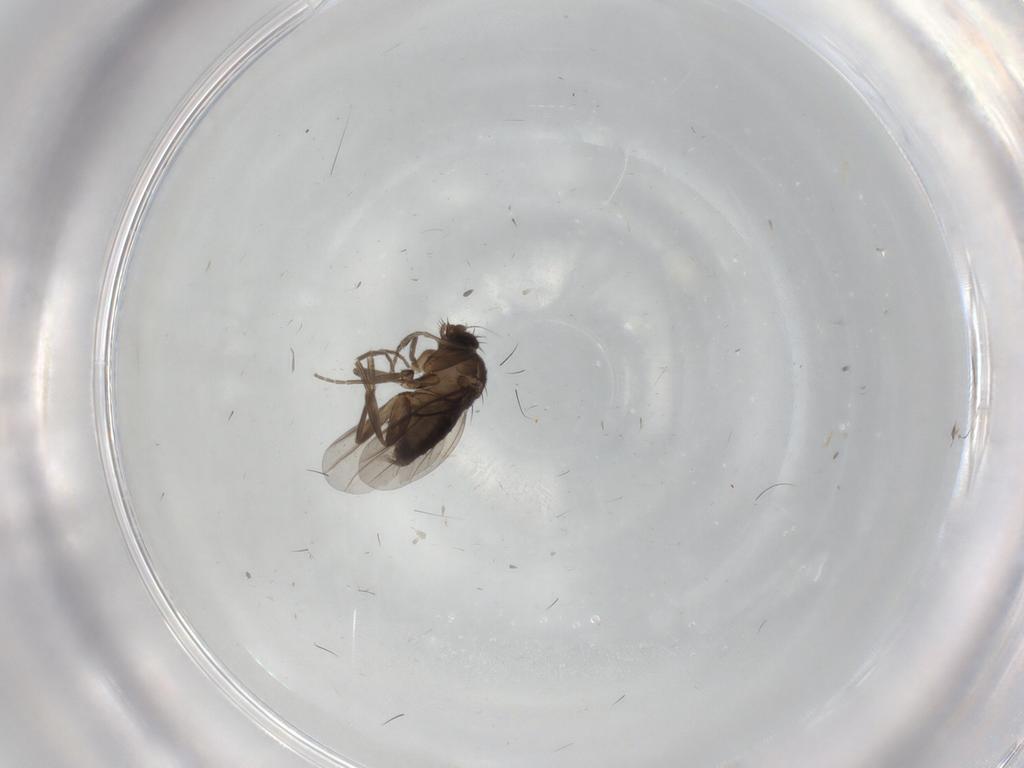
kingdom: Animalia
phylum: Arthropoda
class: Insecta
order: Diptera
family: Phoridae
